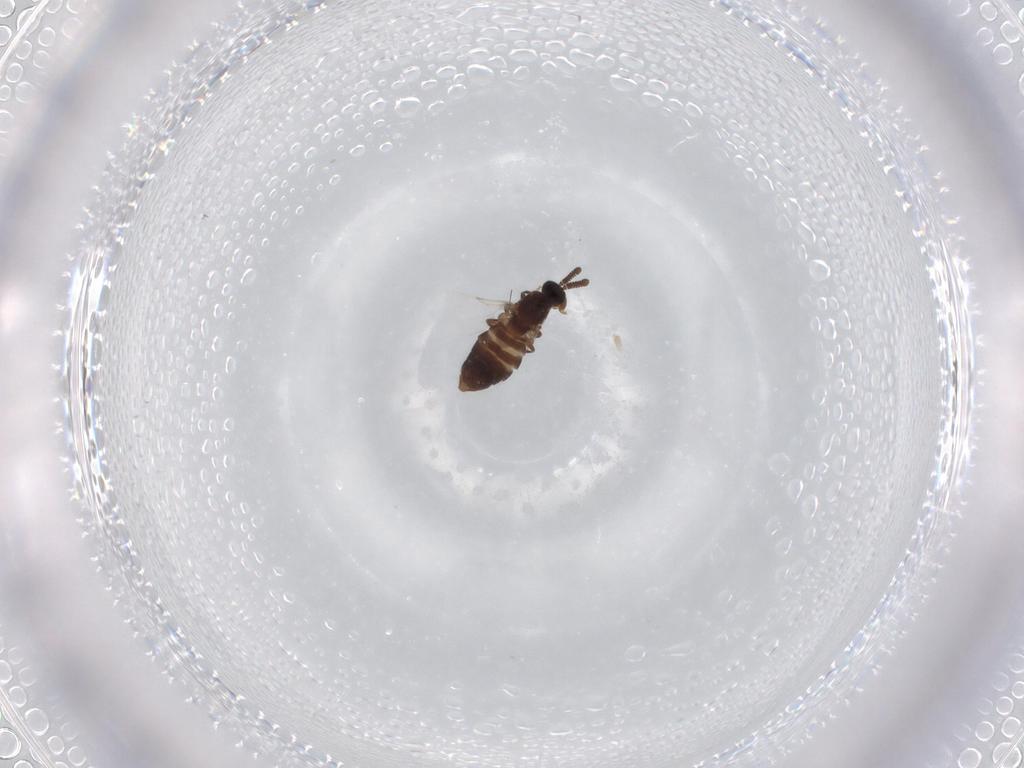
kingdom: Animalia
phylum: Arthropoda
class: Insecta
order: Diptera
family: Scatopsidae
